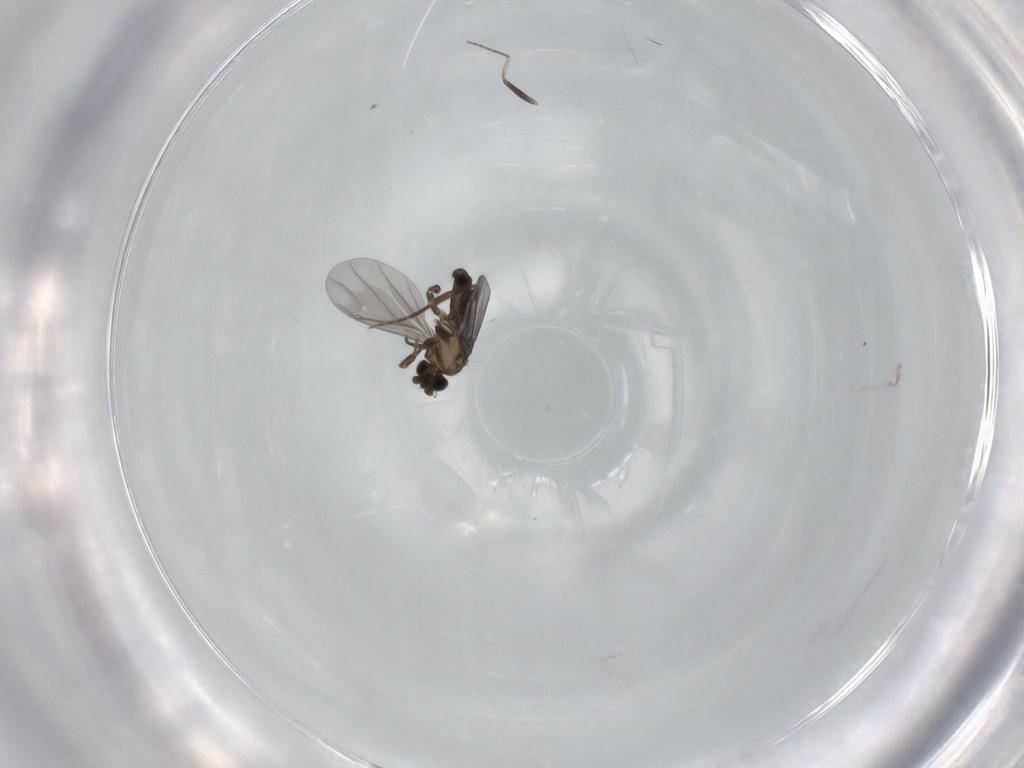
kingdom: Animalia
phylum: Arthropoda
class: Insecta
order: Diptera
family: Phoridae
